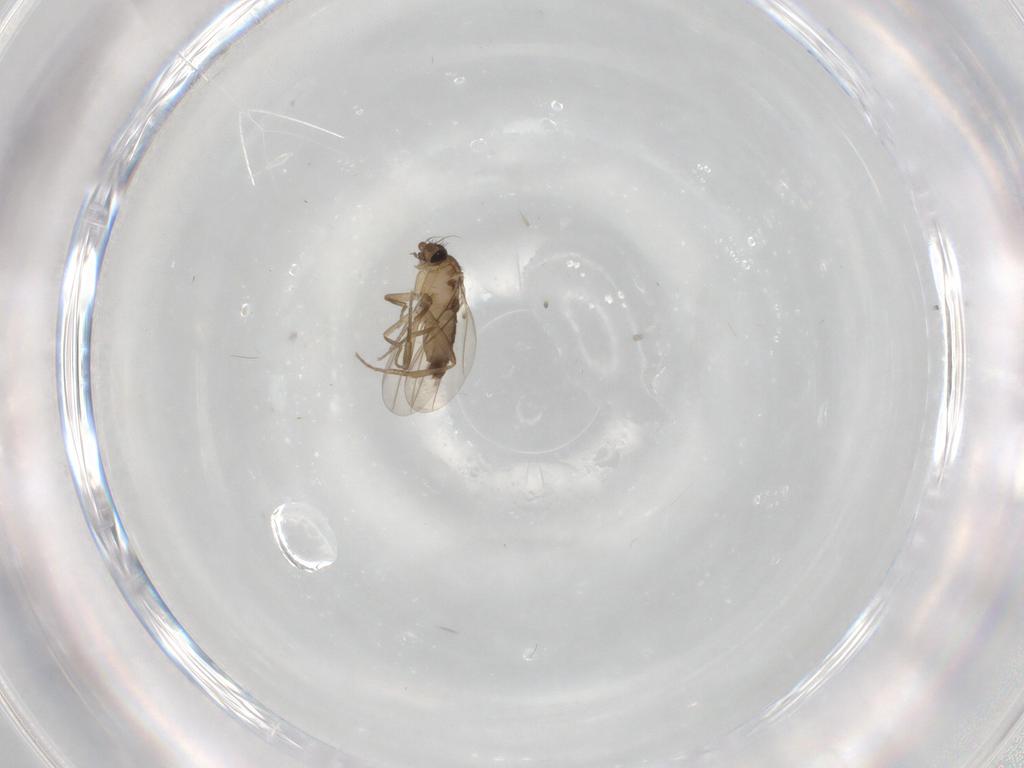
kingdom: Animalia
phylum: Arthropoda
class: Insecta
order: Diptera
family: Phoridae
